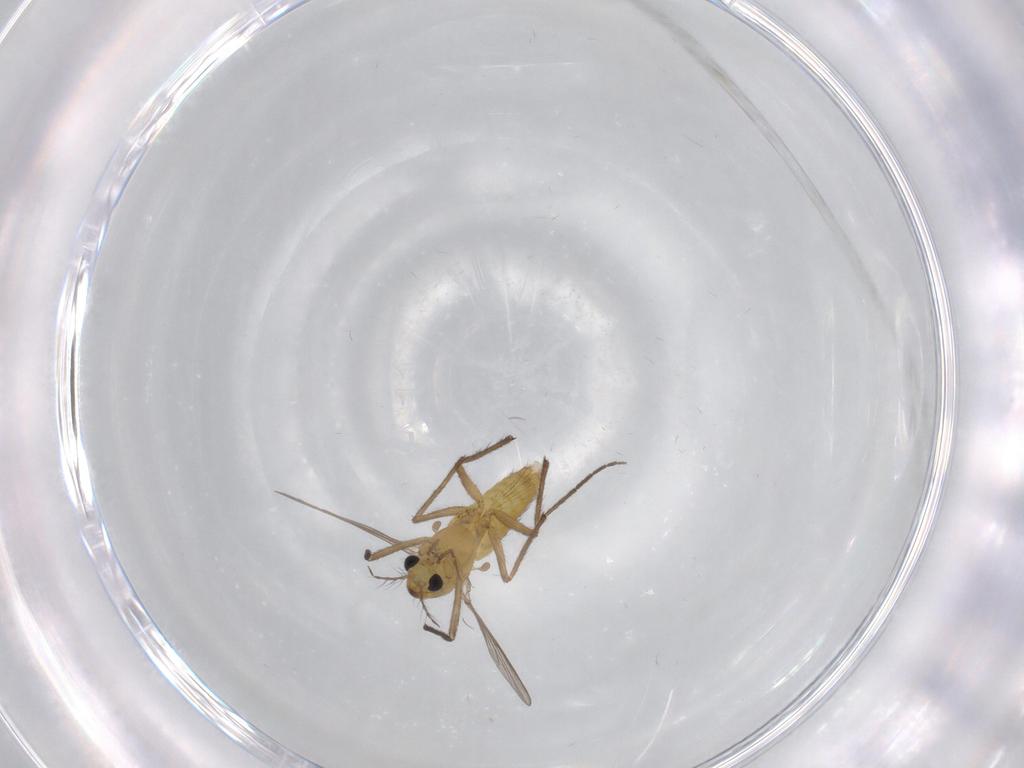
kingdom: Animalia
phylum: Arthropoda
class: Insecta
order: Diptera
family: Chironomidae
